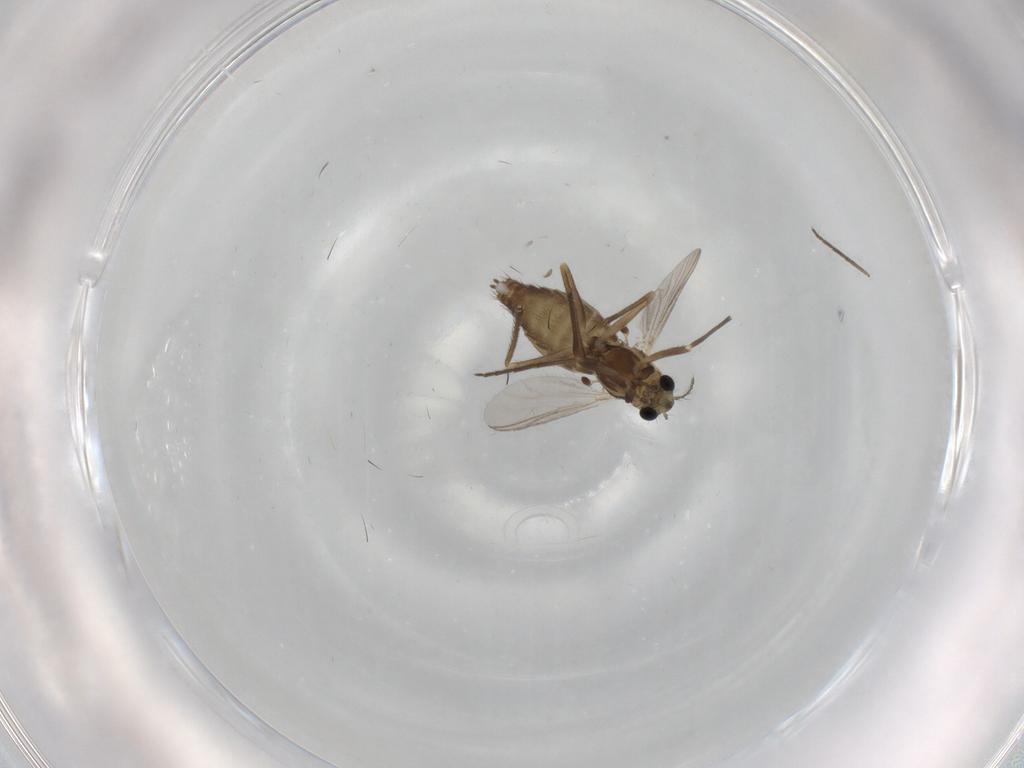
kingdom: Animalia
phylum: Arthropoda
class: Insecta
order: Diptera
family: Chironomidae
